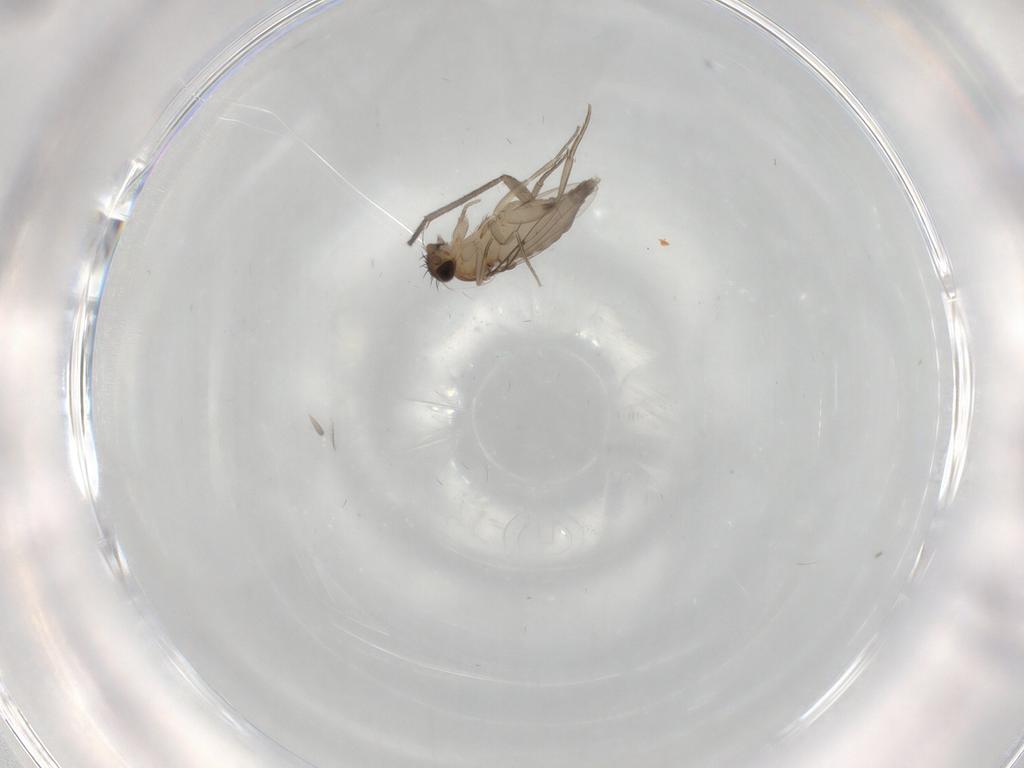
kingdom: Animalia
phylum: Arthropoda
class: Insecta
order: Diptera
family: Keroplatidae
